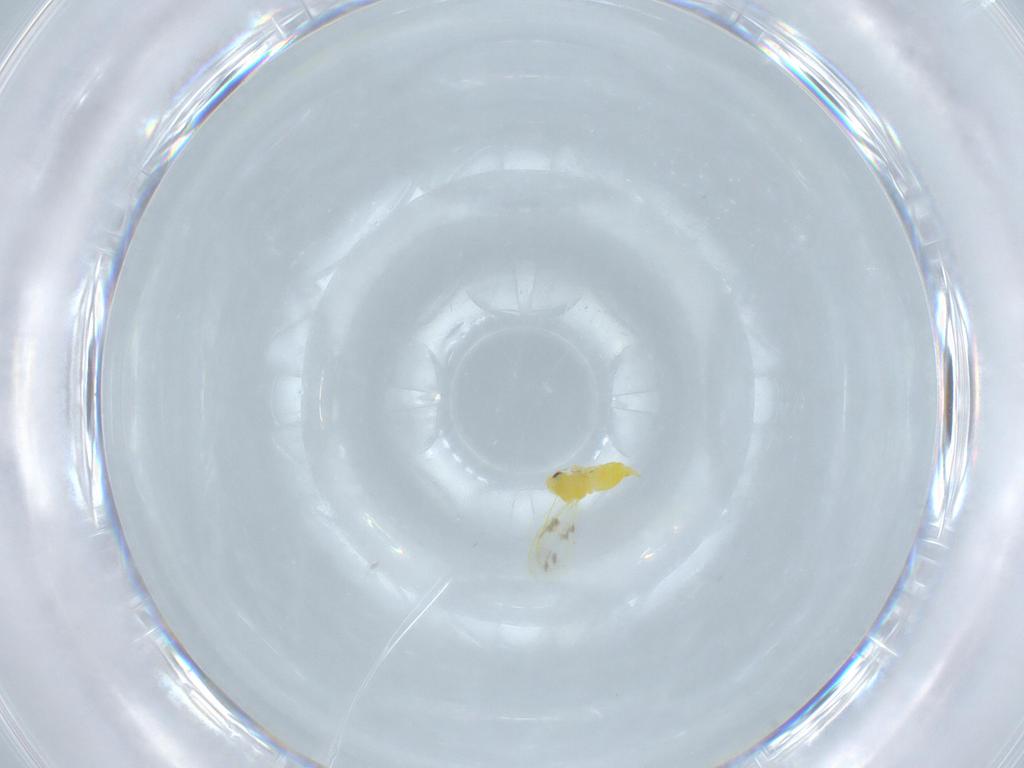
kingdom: Animalia
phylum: Arthropoda
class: Insecta
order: Hemiptera
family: Aleyrodidae
